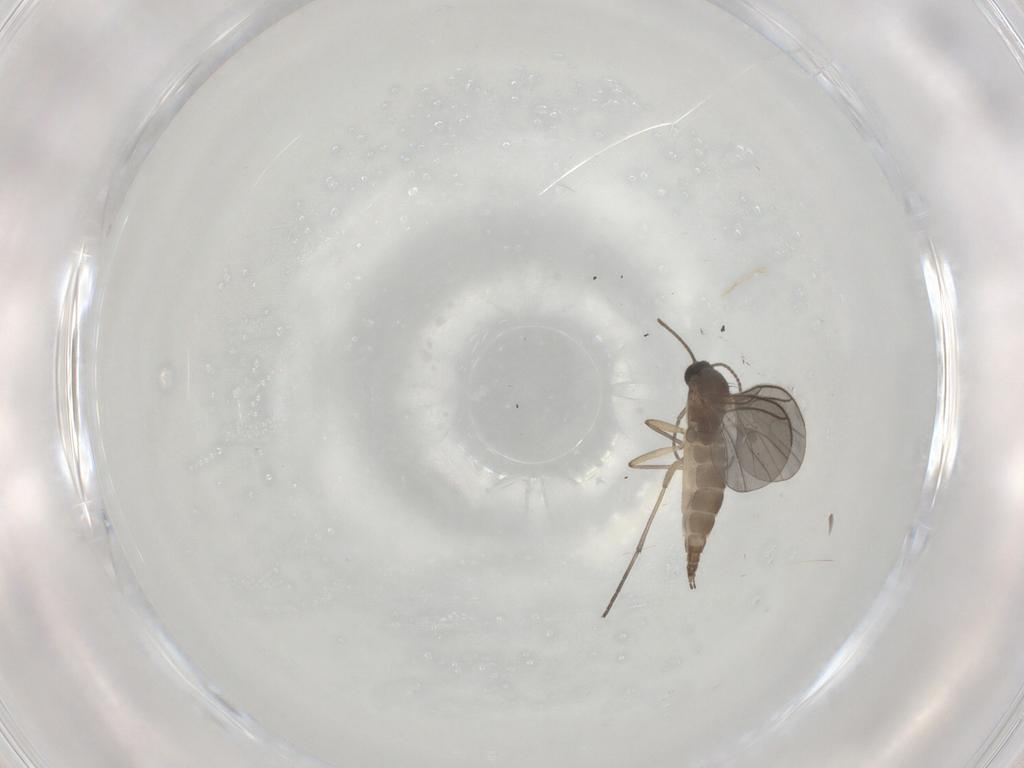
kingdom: Animalia
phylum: Arthropoda
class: Insecta
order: Diptera
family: Sciaridae
